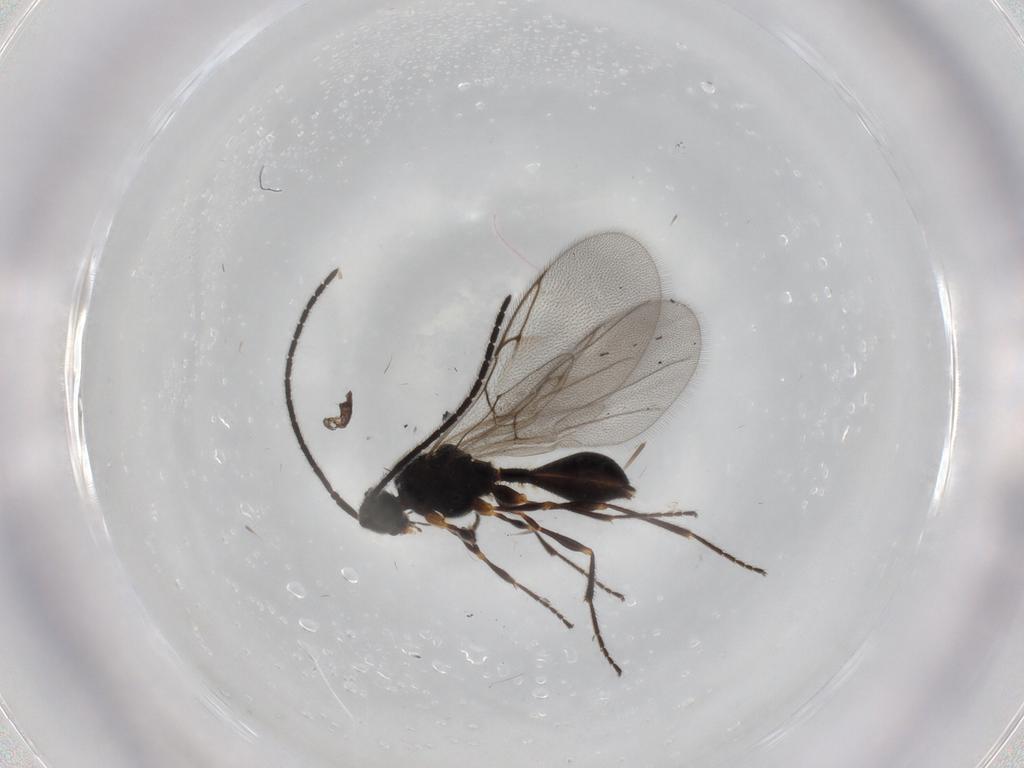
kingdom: Animalia
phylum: Arthropoda
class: Insecta
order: Hymenoptera
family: Diapriidae
